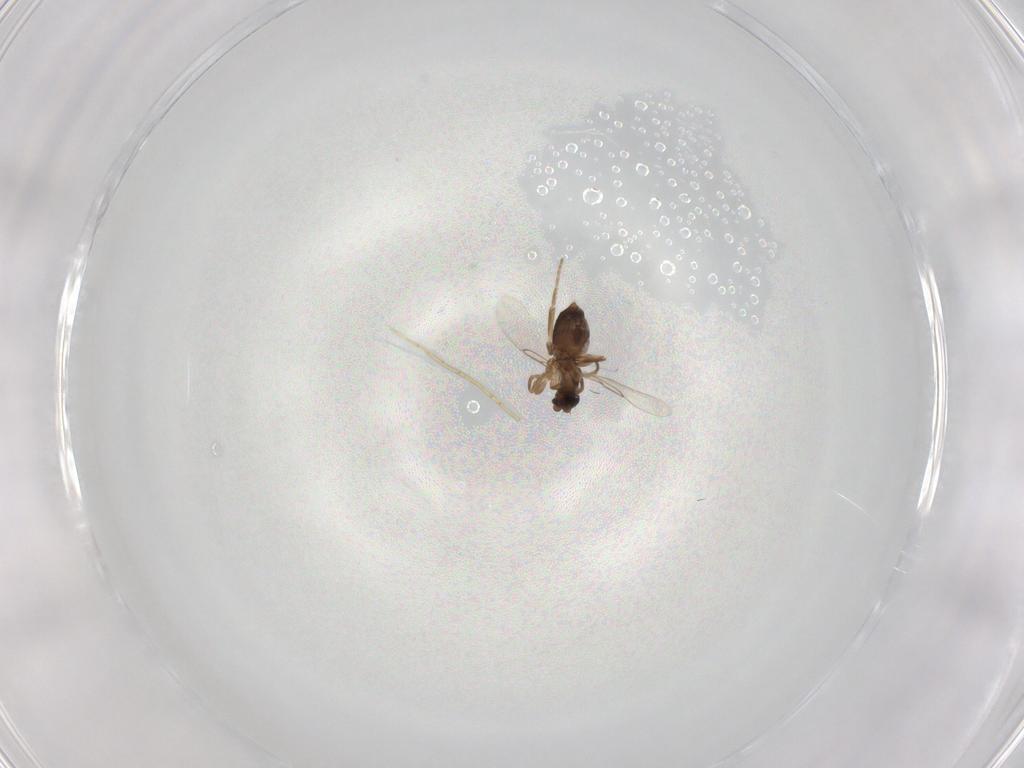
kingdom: Animalia
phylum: Arthropoda
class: Insecta
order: Diptera
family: Phoridae
